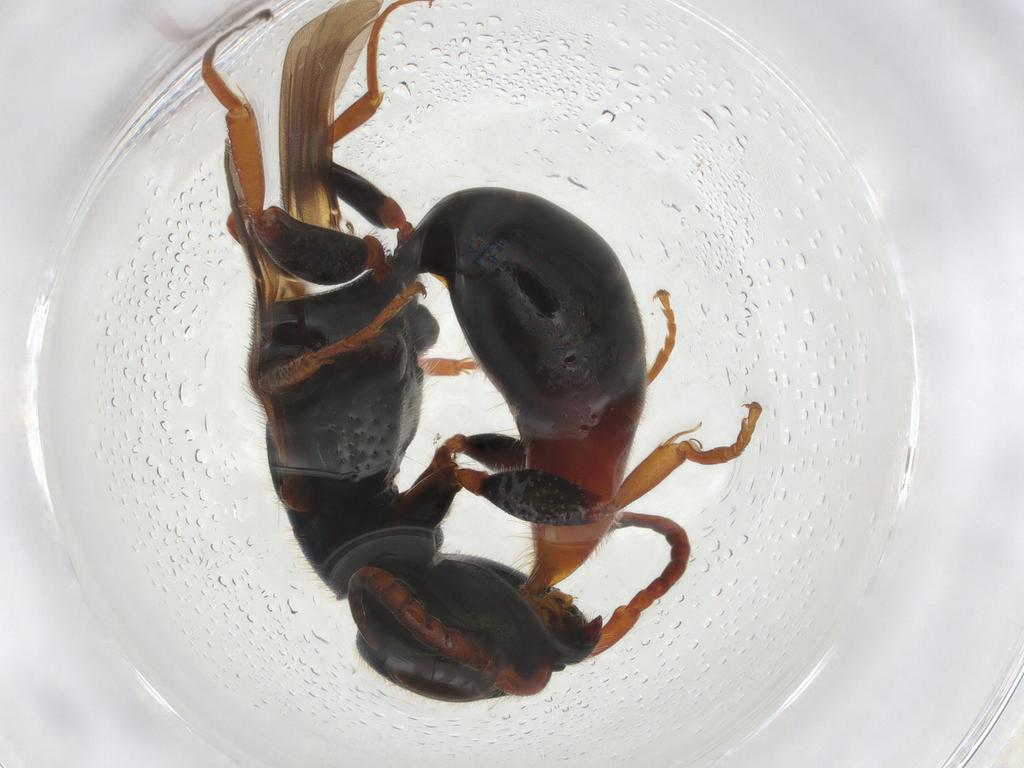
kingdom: Animalia
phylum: Arthropoda
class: Insecta
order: Hymenoptera
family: Bethylidae
